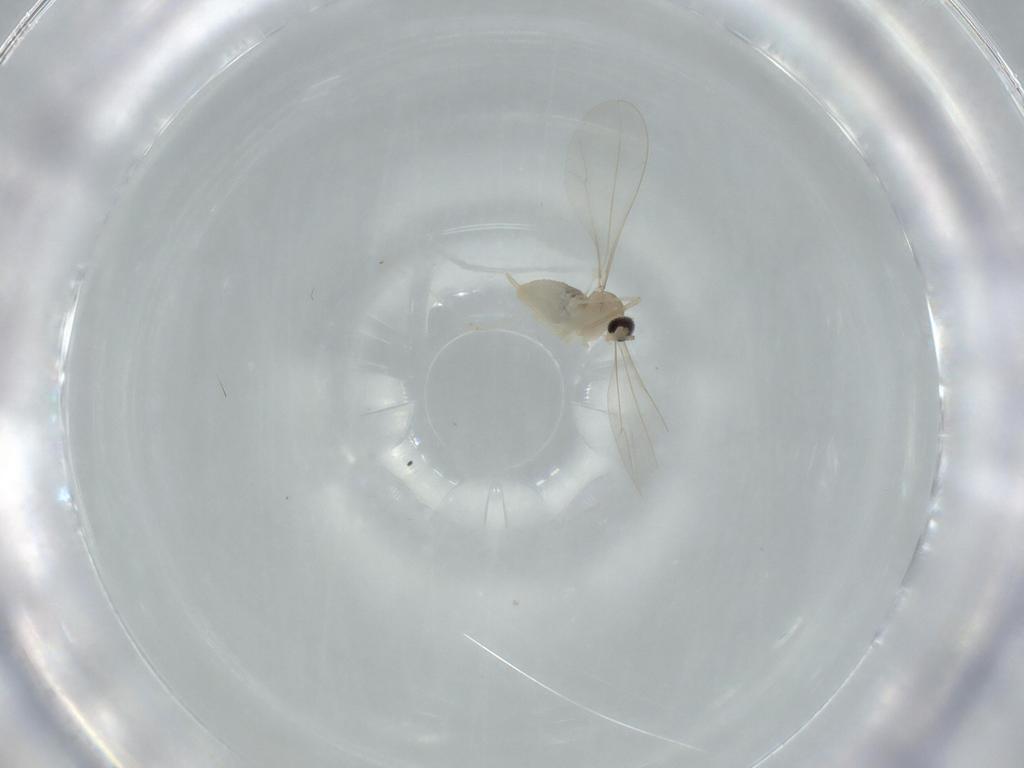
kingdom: Animalia
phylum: Arthropoda
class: Insecta
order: Diptera
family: Cecidomyiidae
